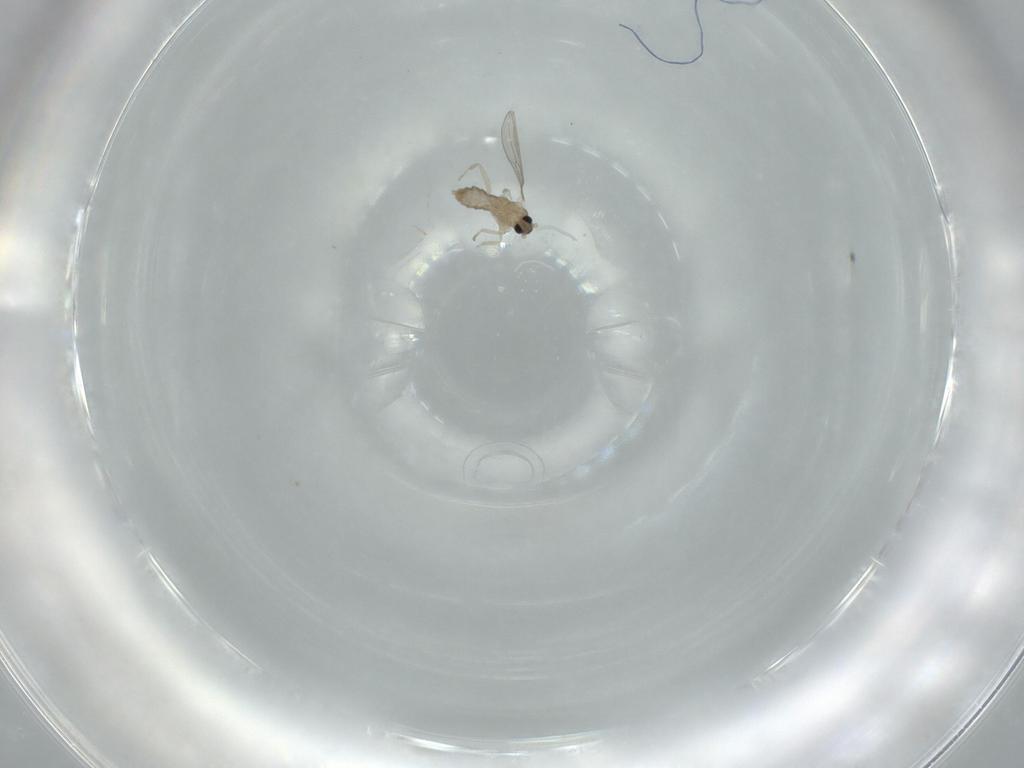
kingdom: Animalia
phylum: Arthropoda
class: Insecta
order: Diptera
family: Cecidomyiidae
